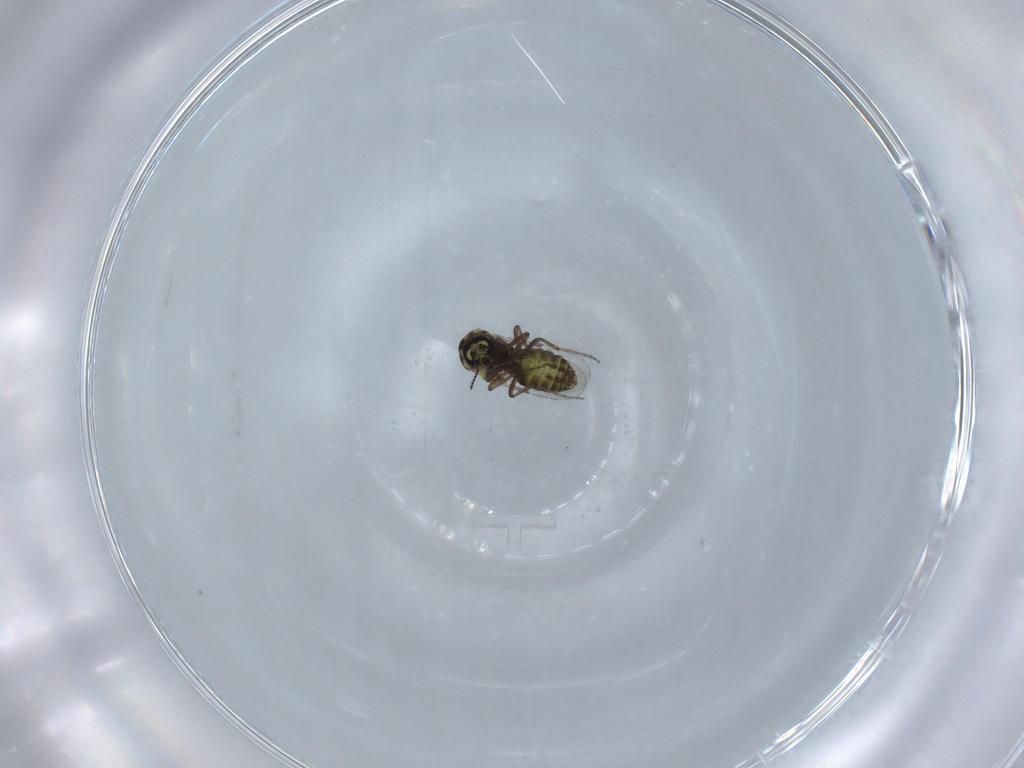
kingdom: Animalia
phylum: Arthropoda
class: Insecta
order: Diptera
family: Ceratopogonidae
